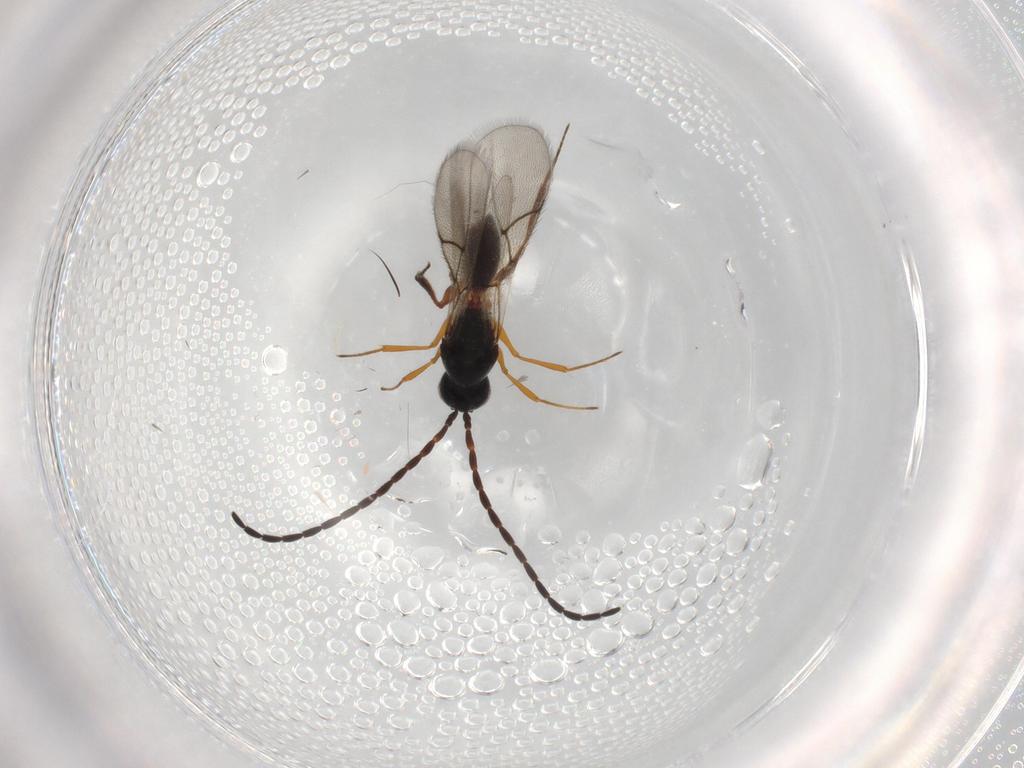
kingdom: Animalia
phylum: Arthropoda
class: Insecta
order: Hymenoptera
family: Figitidae
